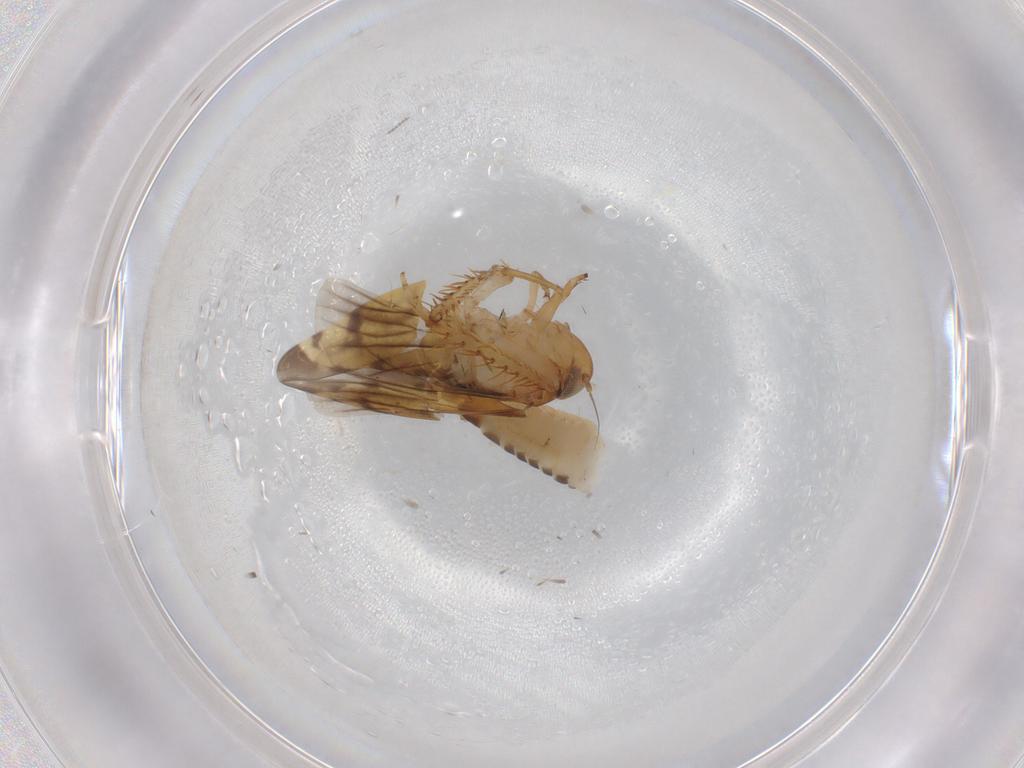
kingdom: Animalia
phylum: Arthropoda
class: Insecta
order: Hemiptera
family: Cicadellidae
